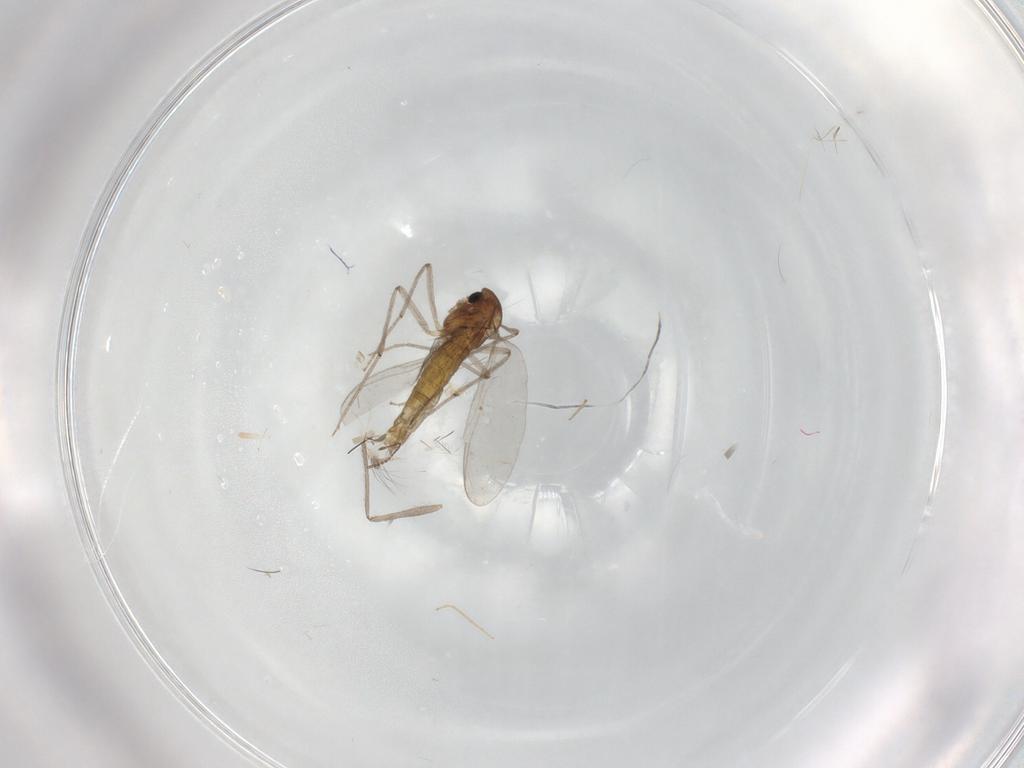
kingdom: Animalia
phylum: Arthropoda
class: Insecta
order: Diptera
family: Chironomidae
